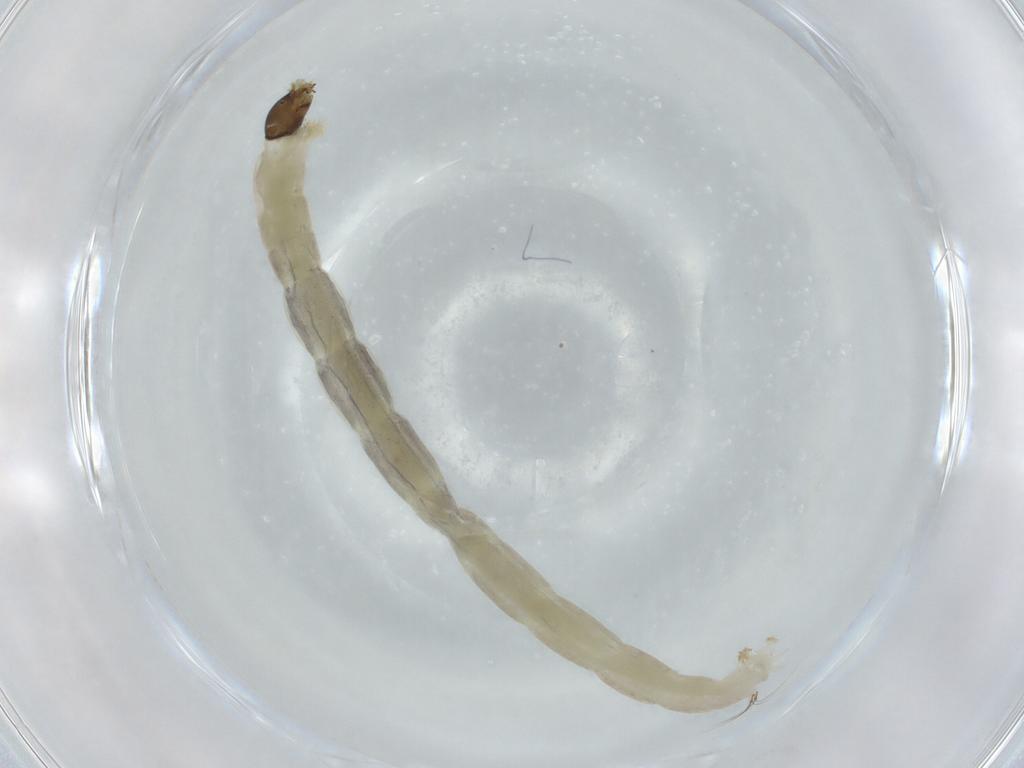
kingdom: Animalia
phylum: Arthropoda
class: Insecta
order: Diptera
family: Chironomidae
